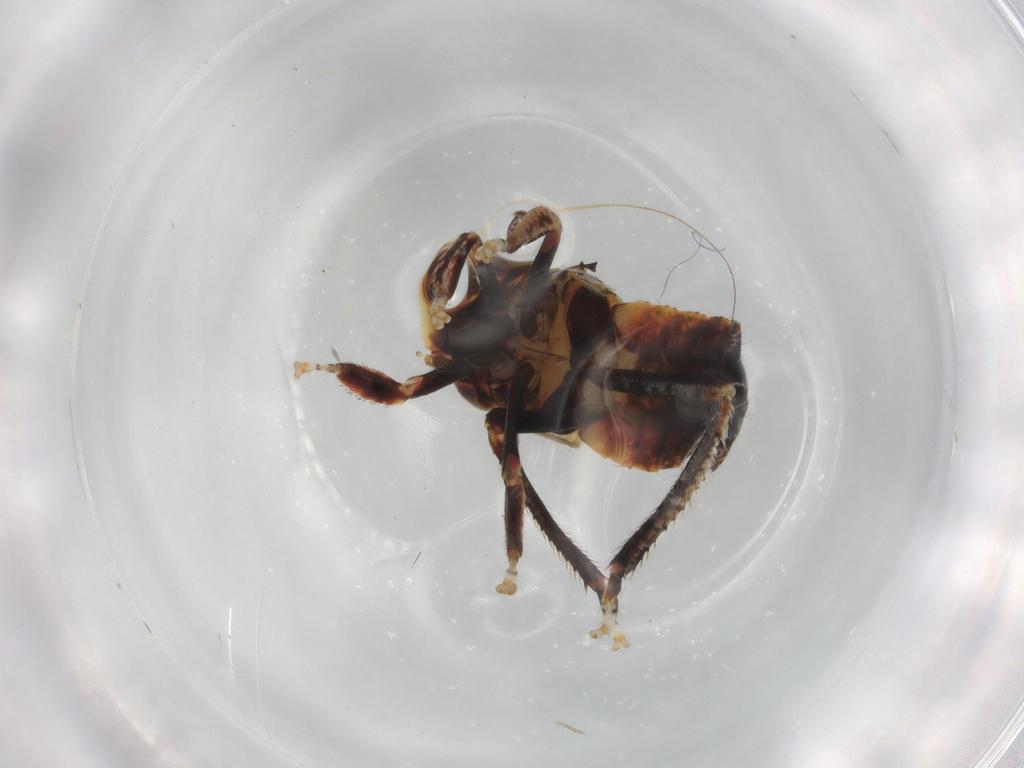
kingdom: Animalia
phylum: Arthropoda
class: Insecta
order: Hemiptera
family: Cicadellidae
